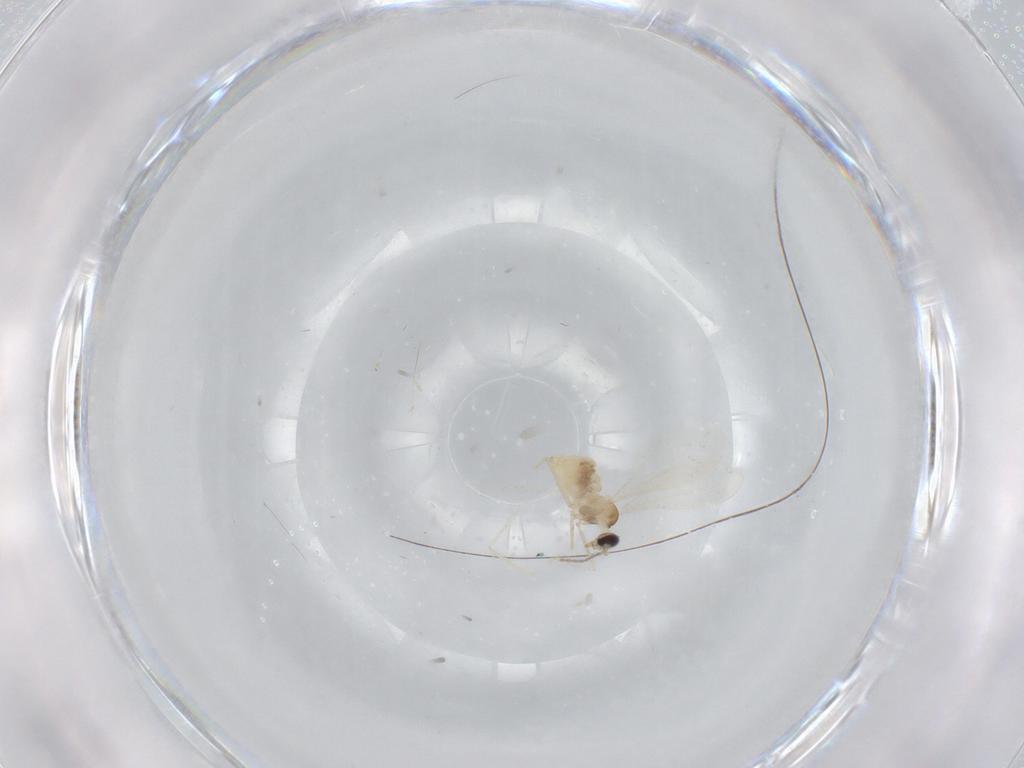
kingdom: Animalia
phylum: Arthropoda
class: Insecta
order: Diptera
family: Cecidomyiidae
